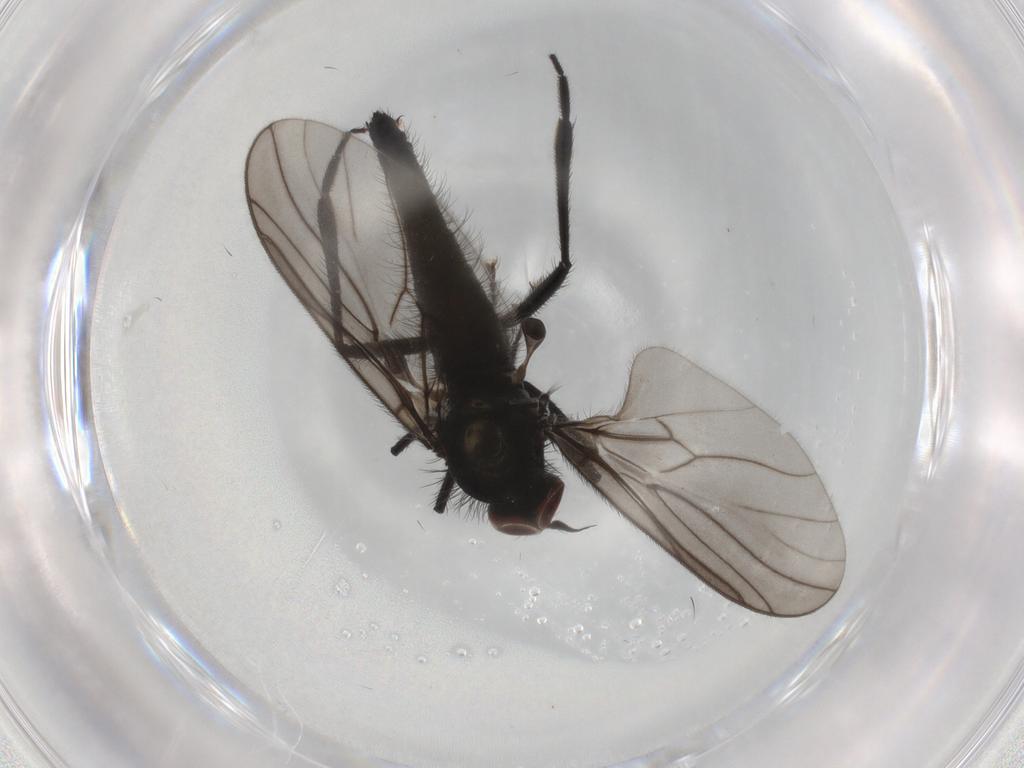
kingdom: Animalia
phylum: Arthropoda
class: Insecta
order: Diptera
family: Hybotidae
